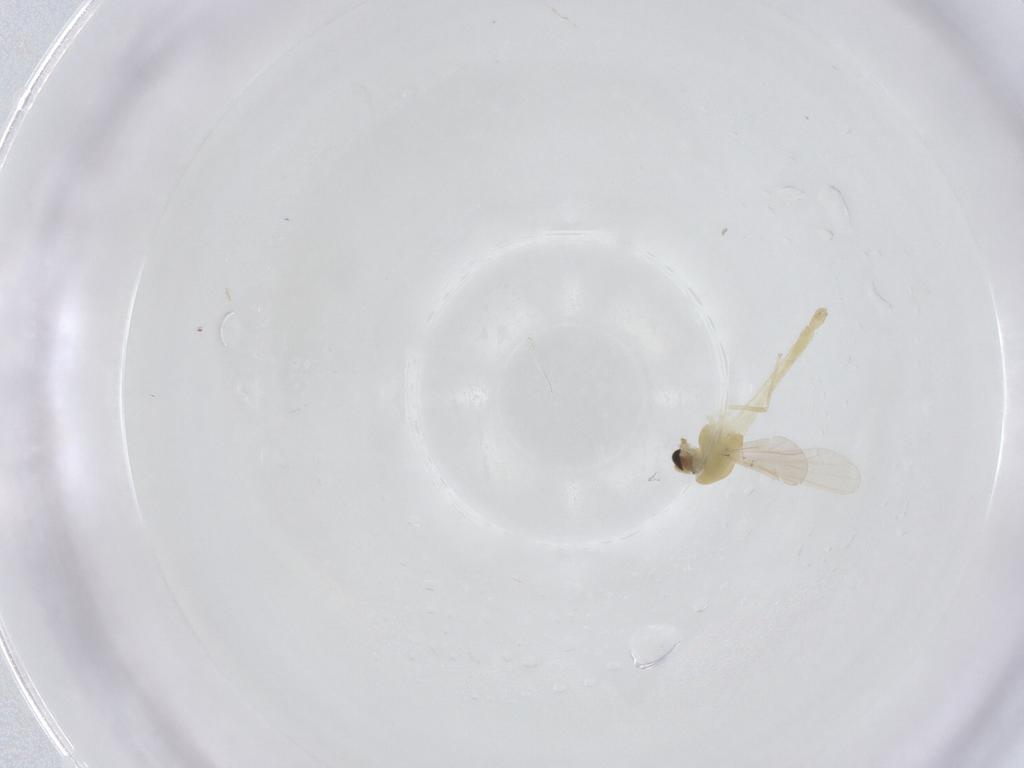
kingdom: Animalia
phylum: Arthropoda
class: Insecta
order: Diptera
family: Chironomidae
